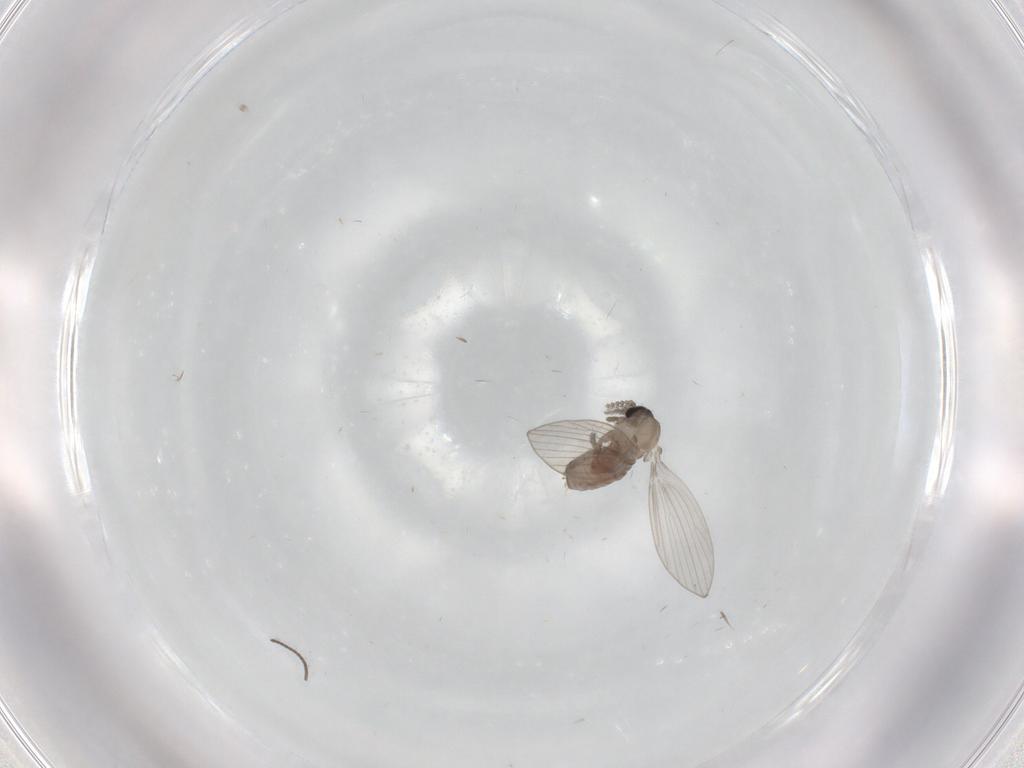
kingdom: Animalia
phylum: Arthropoda
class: Insecta
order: Diptera
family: Psychodidae
